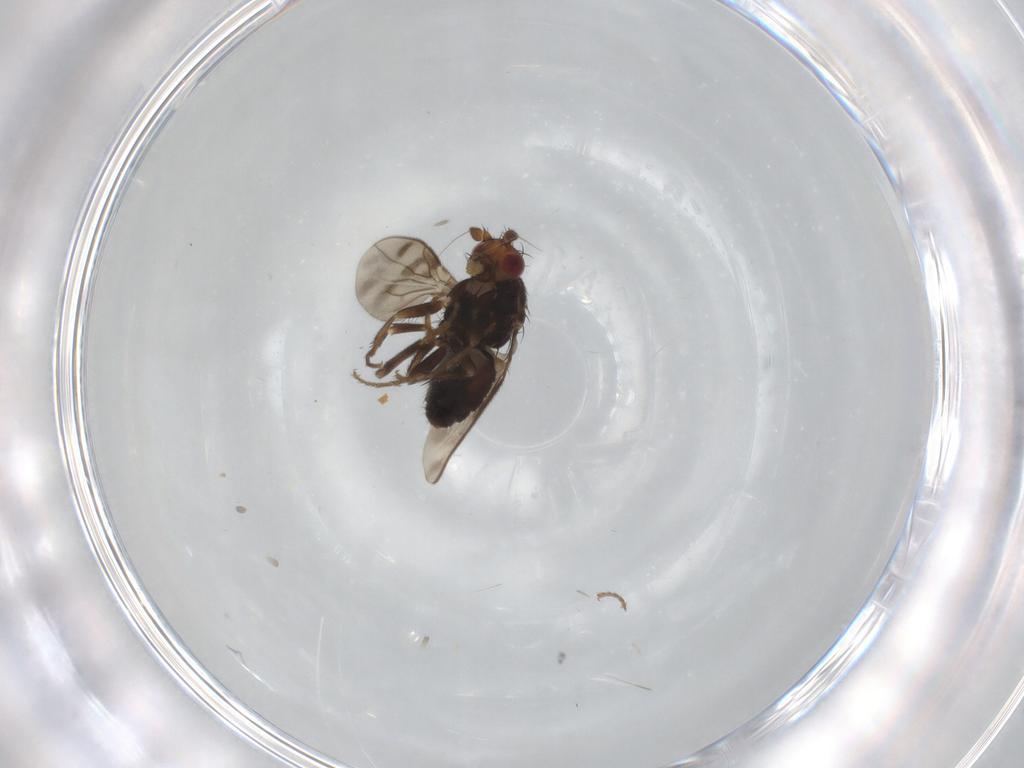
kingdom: Animalia
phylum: Arthropoda
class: Insecta
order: Diptera
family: Sphaeroceridae
